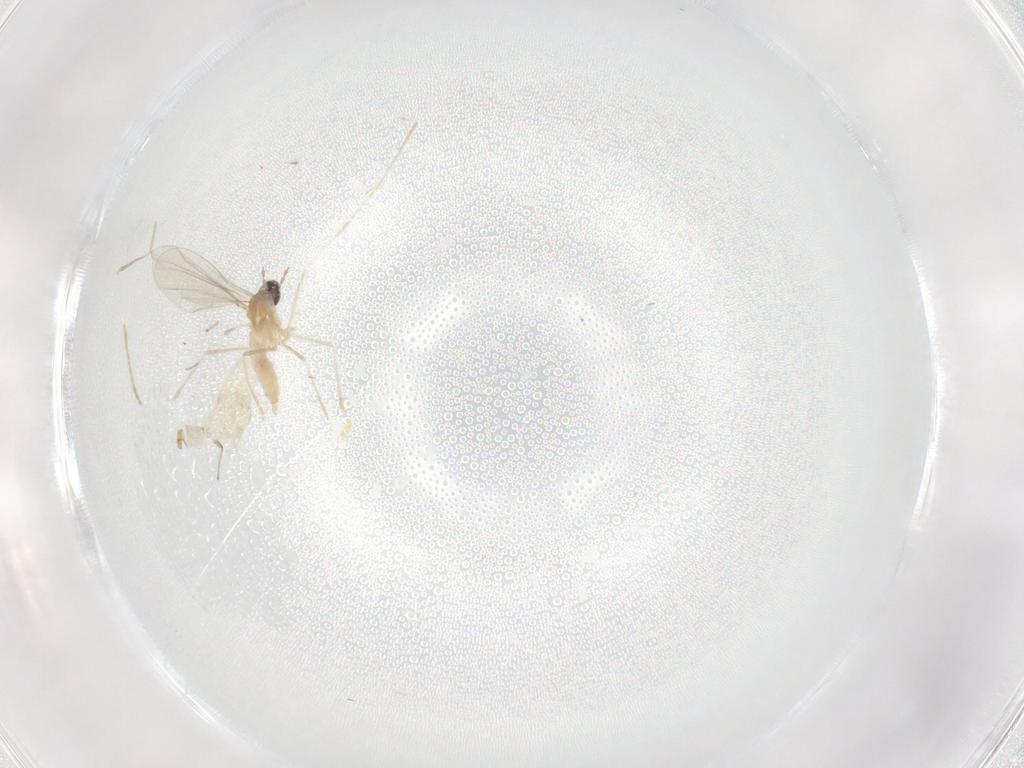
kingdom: Animalia
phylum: Arthropoda
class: Insecta
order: Diptera
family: Chironomidae
